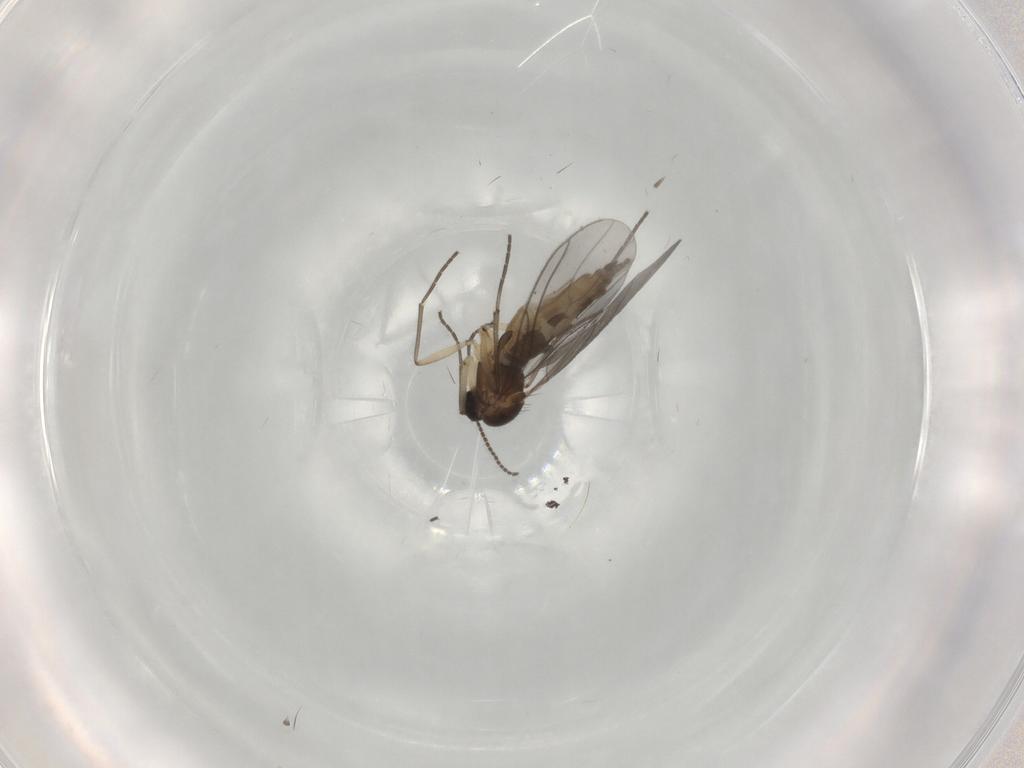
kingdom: Animalia
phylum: Arthropoda
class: Insecta
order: Diptera
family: Sciaridae
